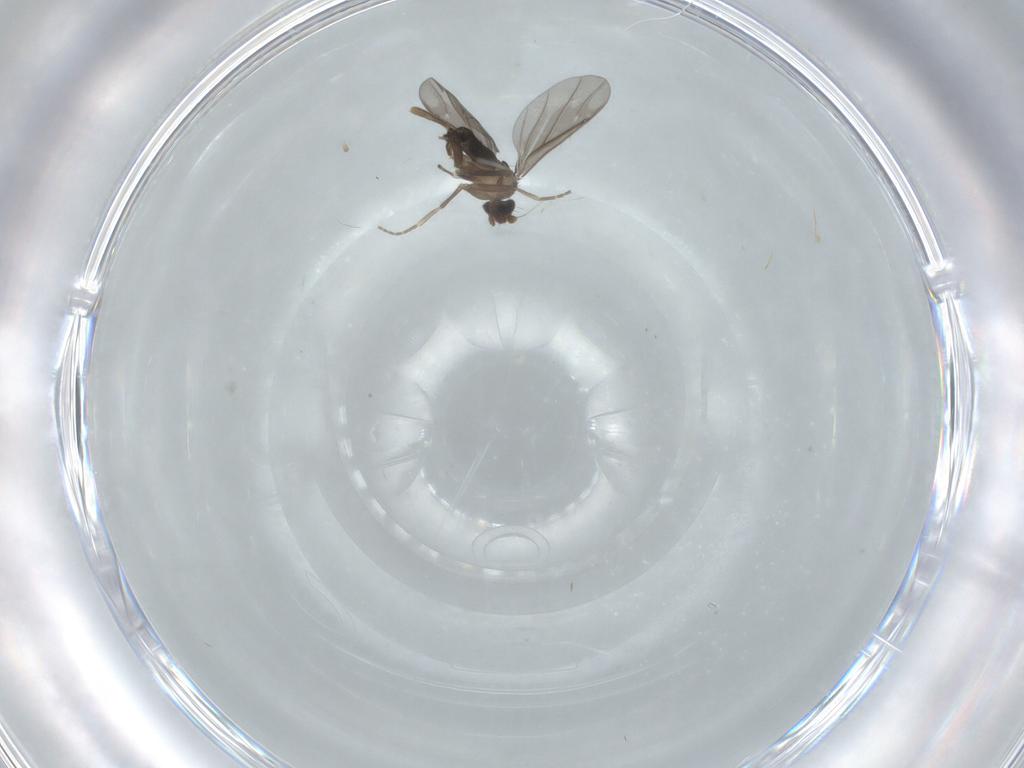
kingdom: Animalia
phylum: Arthropoda
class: Insecta
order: Diptera
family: Phoridae
